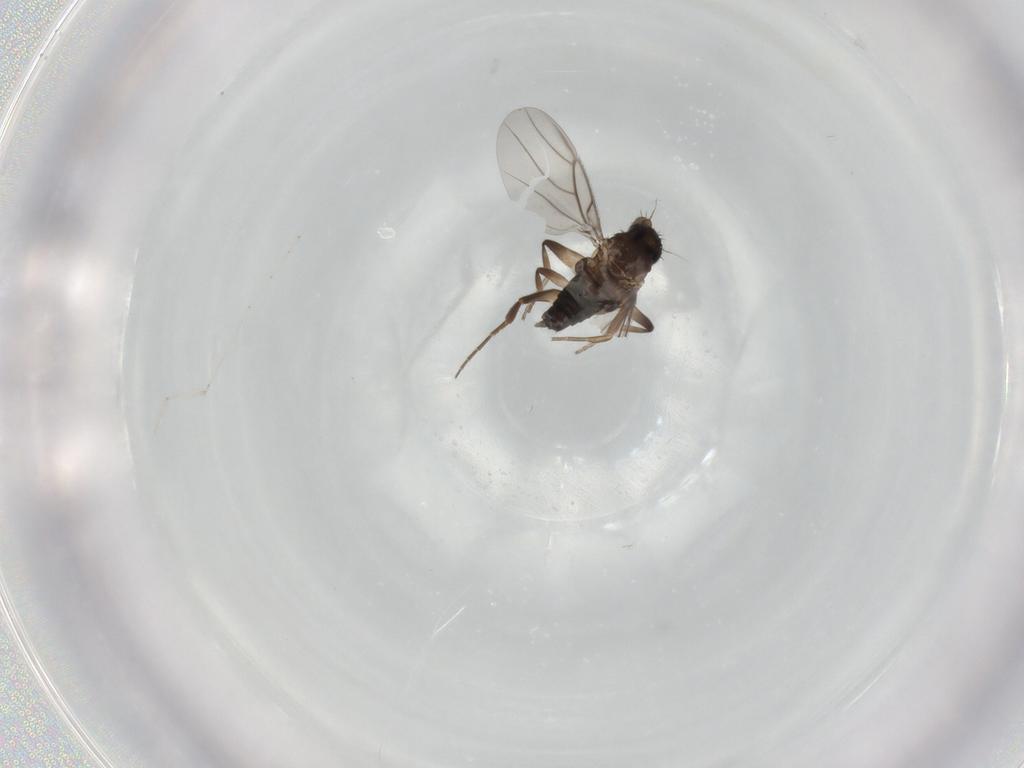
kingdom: Animalia
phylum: Arthropoda
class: Insecta
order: Diptera
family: Cecidomyiidae
